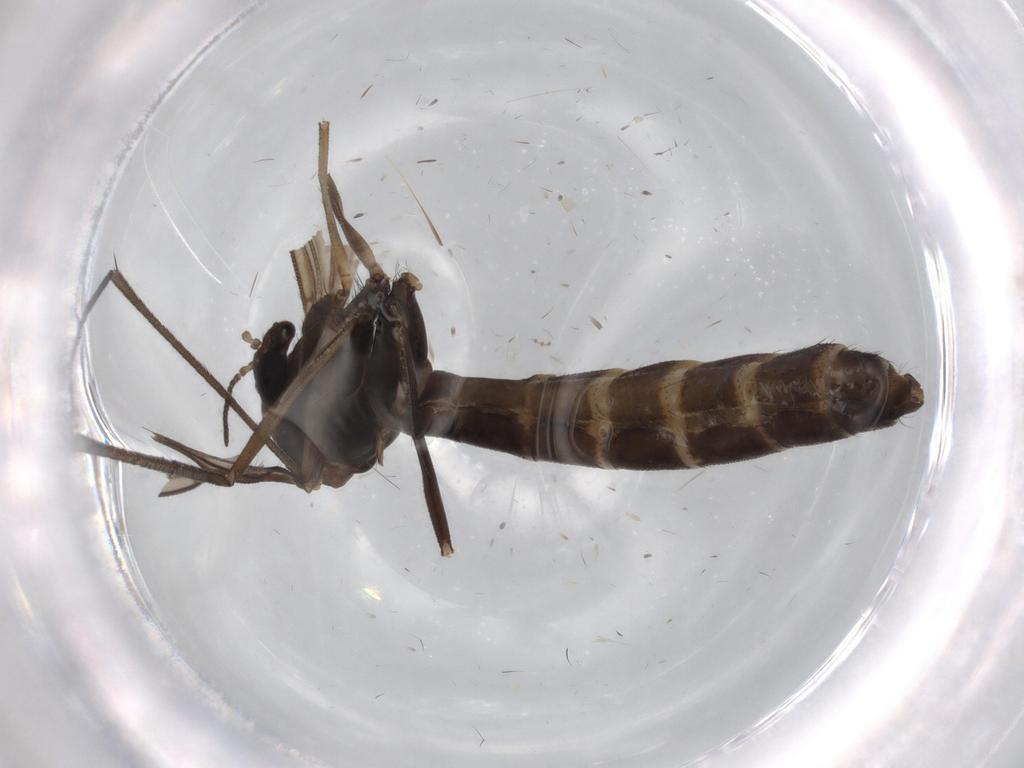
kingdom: Animalia
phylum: Arthropoda
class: Insecta
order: Diptera
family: Ditomyiidae
